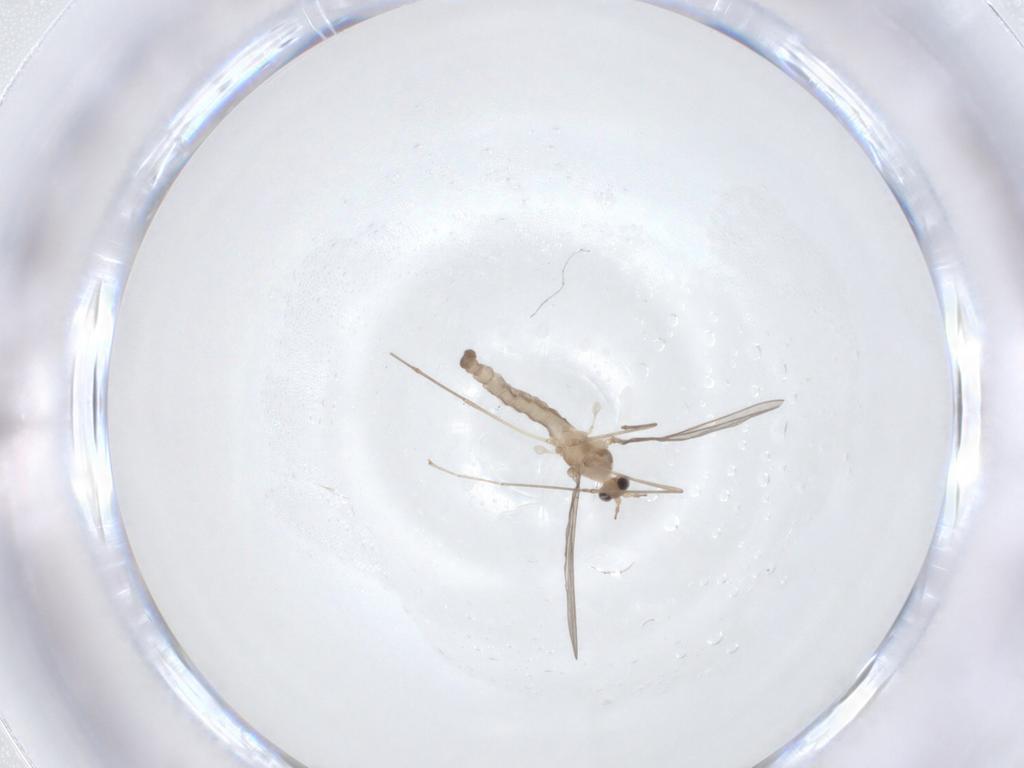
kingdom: Animalia
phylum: Arthropoda
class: Insecta
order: Diptera
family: Cecidomyiidae
